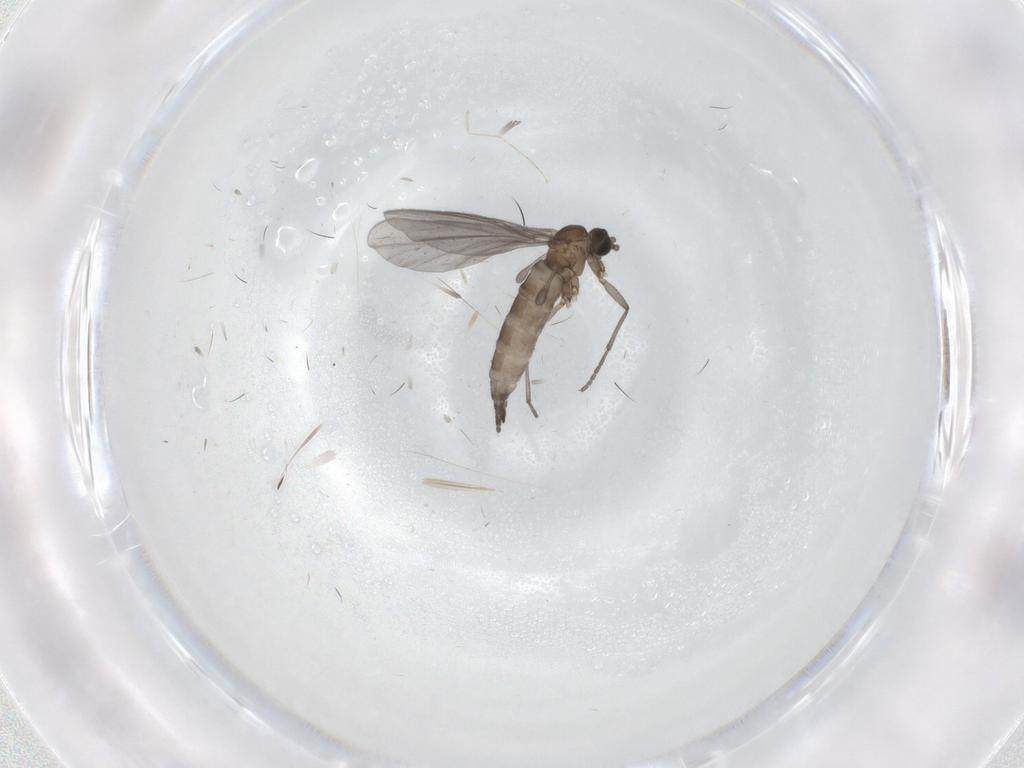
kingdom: Animalia
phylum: Arthropoda
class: Insecta
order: Diptera
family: Sciaridae
